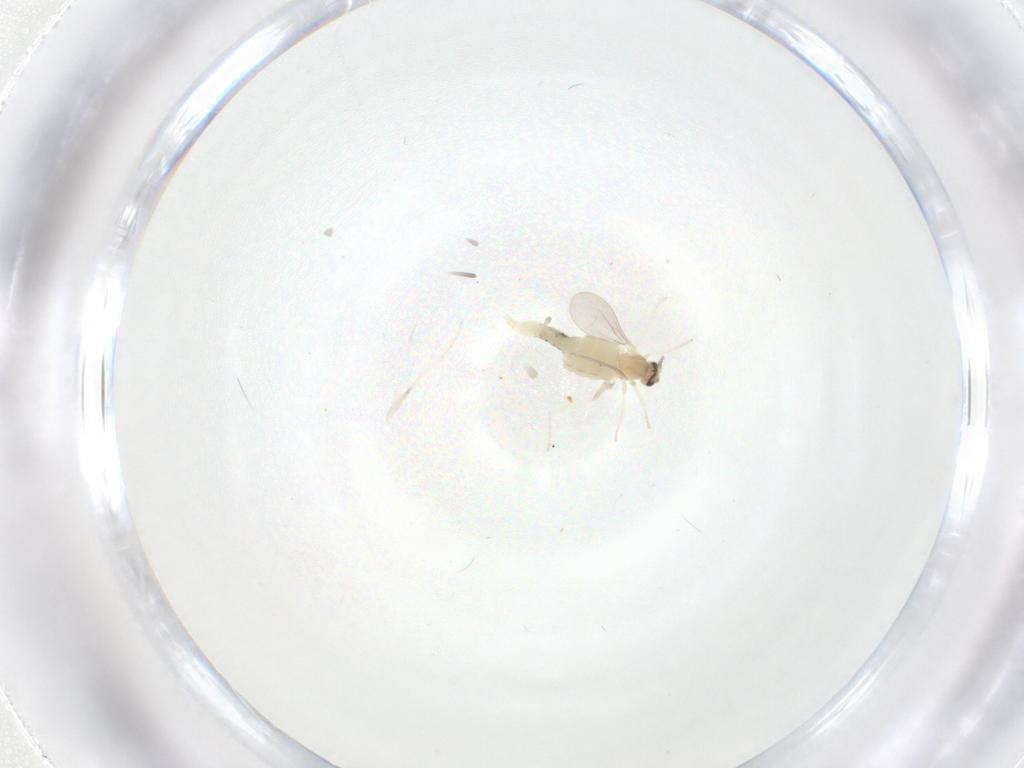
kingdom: Animalia
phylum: Arthropoda
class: Insecta
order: Diptera
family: Cecidomyiidae
